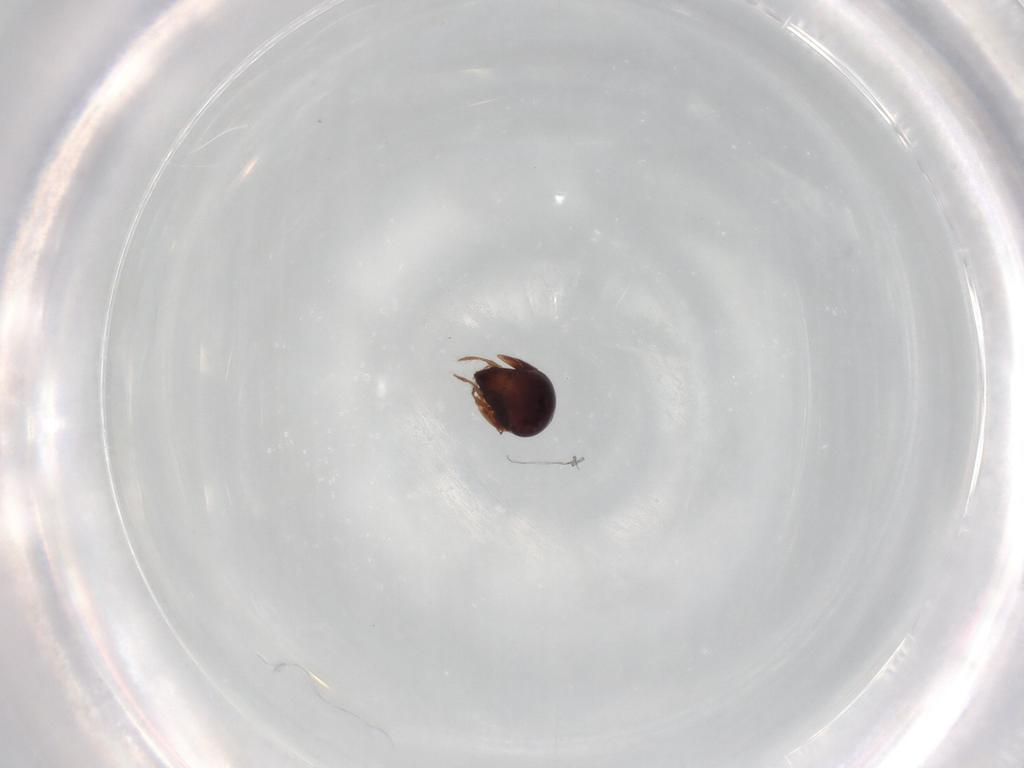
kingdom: Animalia
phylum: Arthropoda
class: Arachnida
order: Sarcoptiformes
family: Galumnidae
